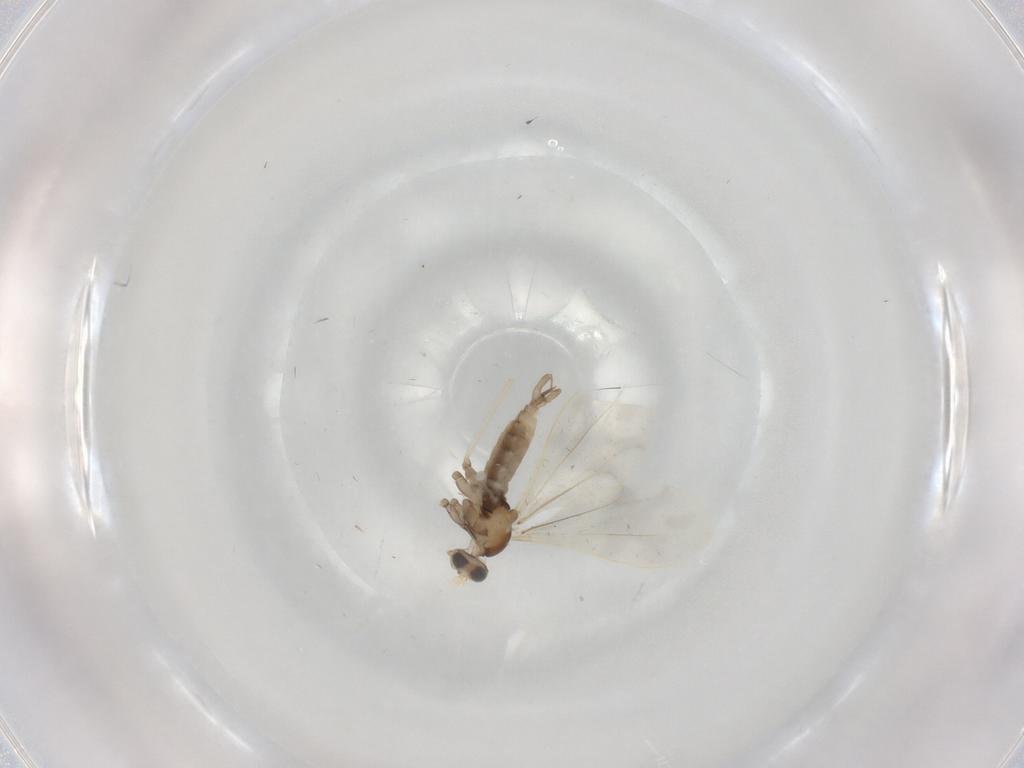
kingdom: Animalia
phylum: Arthropoda
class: Insecta
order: Diptera
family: Cecidomyiidae
